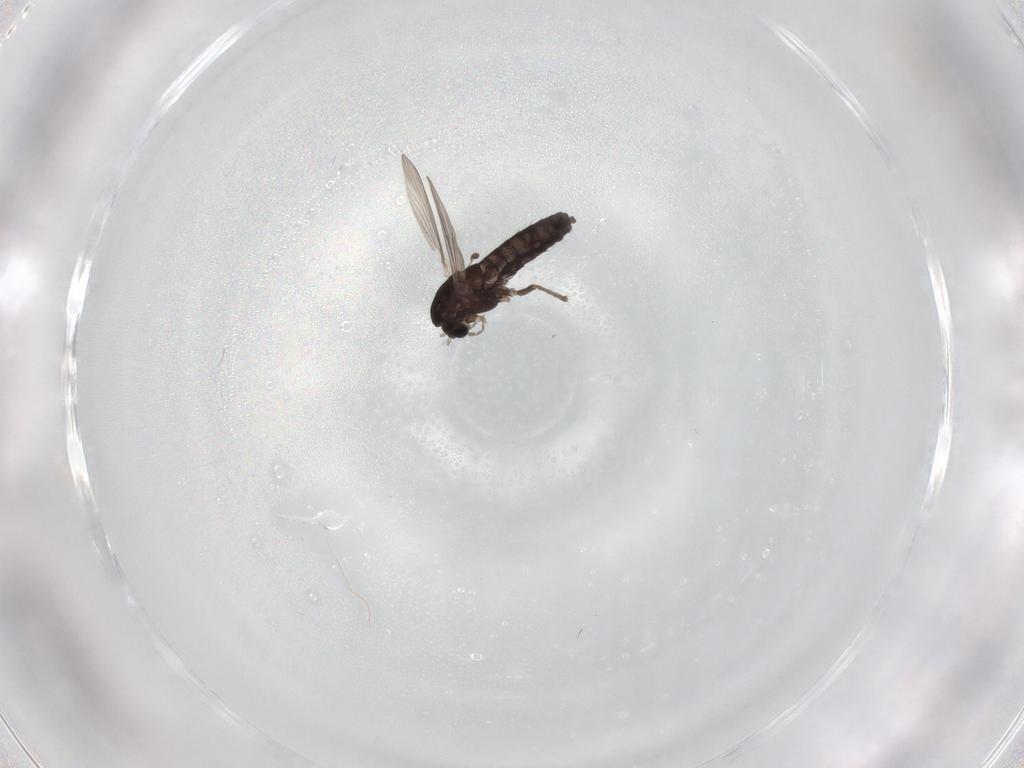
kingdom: Animalia
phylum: Arthropoda
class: Insecta
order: Diptera
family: Chironomidae
